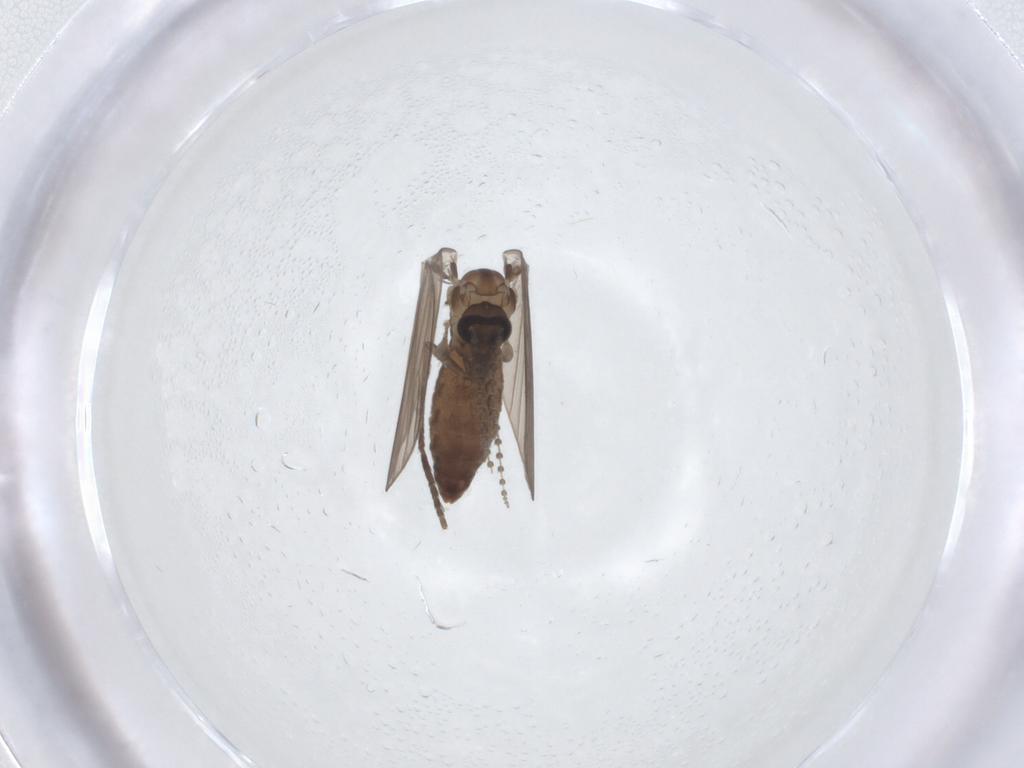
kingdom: Animalia
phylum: Arthropoda
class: Insecta
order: Diptera
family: Psychodidae
